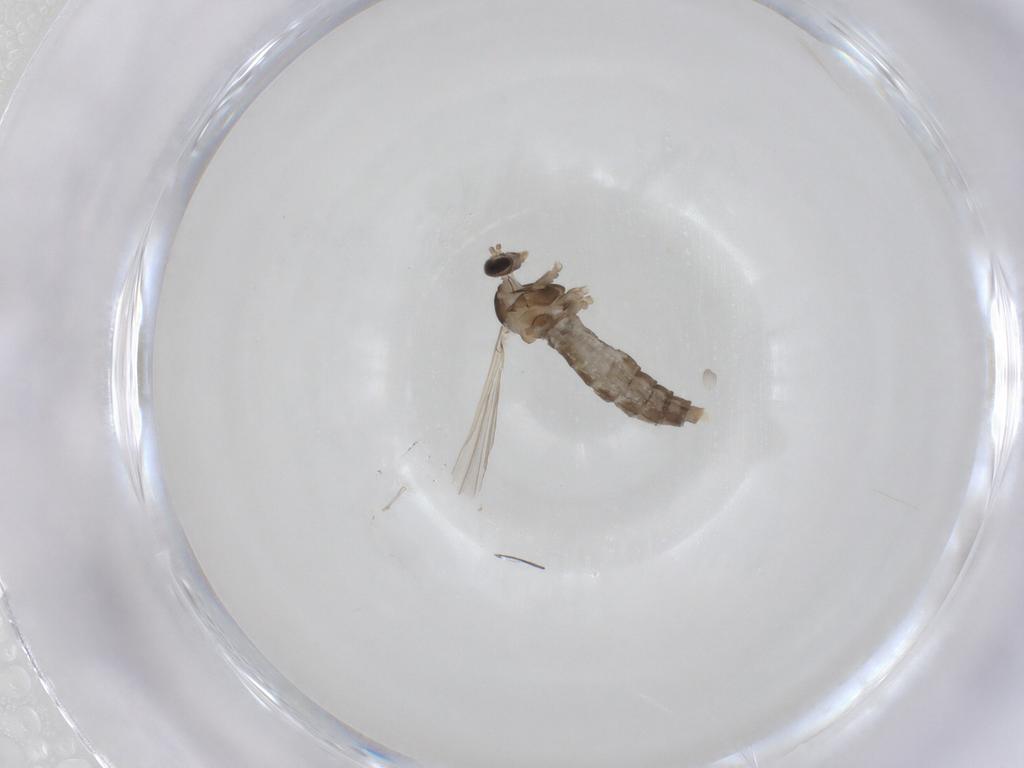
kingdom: Animalia
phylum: Arthropoda
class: Insecta
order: Diptera
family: Cecidomyiidae
